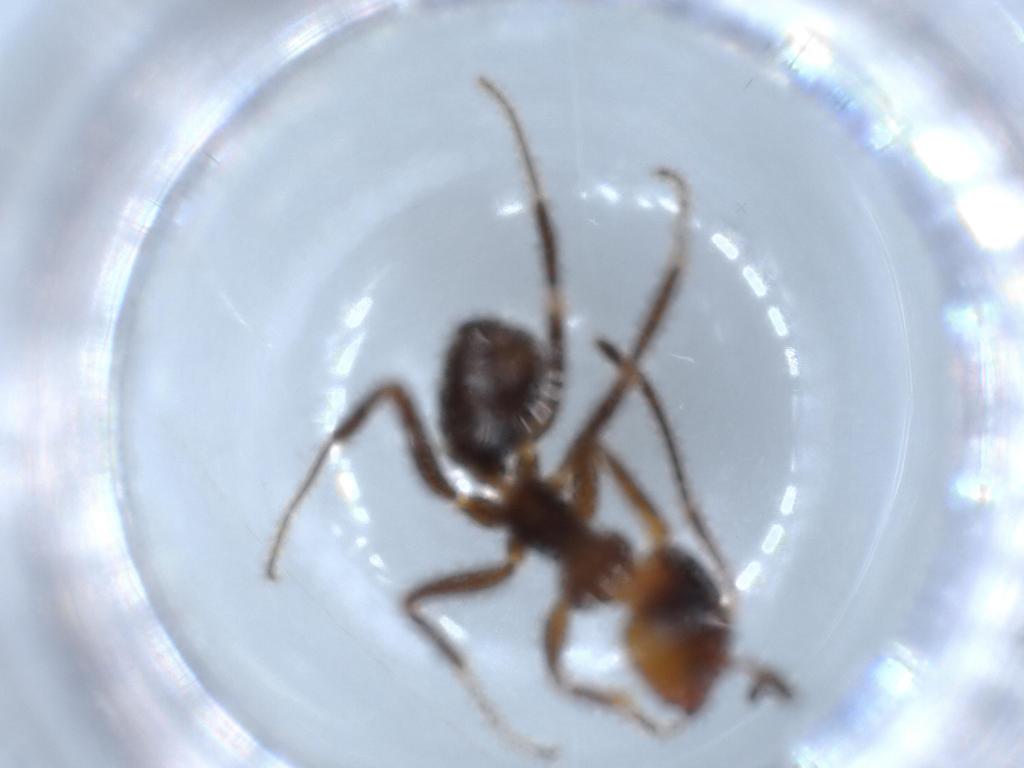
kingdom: Animalia
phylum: Arthropoda
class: Insecta
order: Hymenoptera
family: Formicidae
